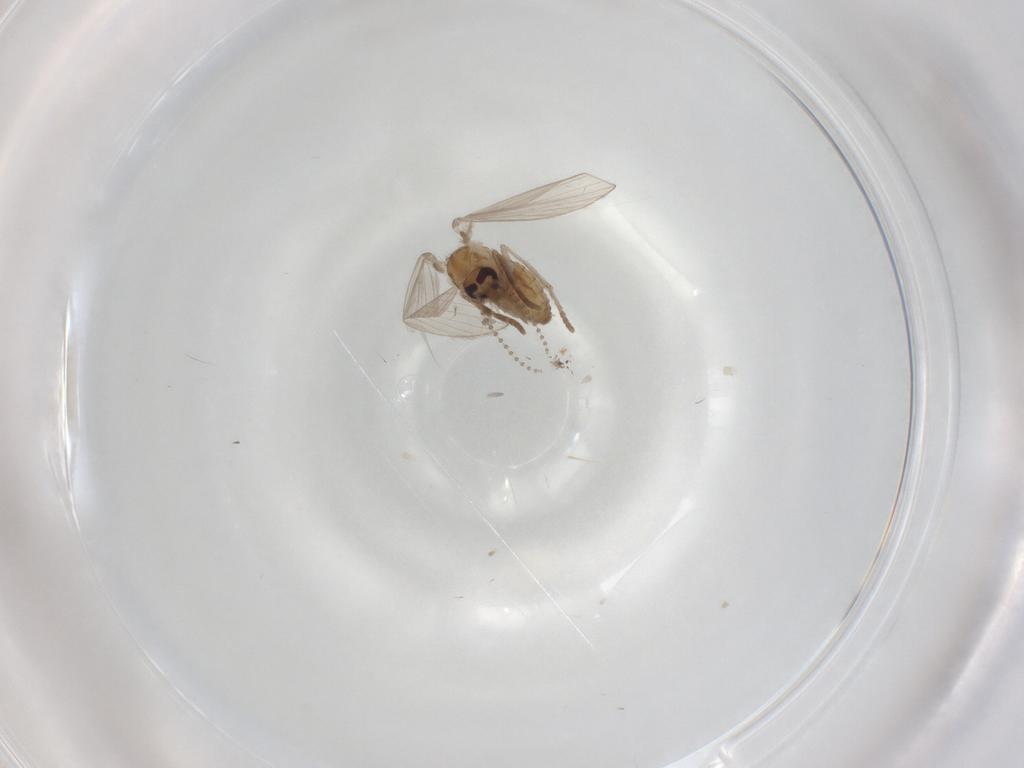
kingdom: Animalia
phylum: Arthropoda
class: Insecta
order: Diptera
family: Psychodidae
